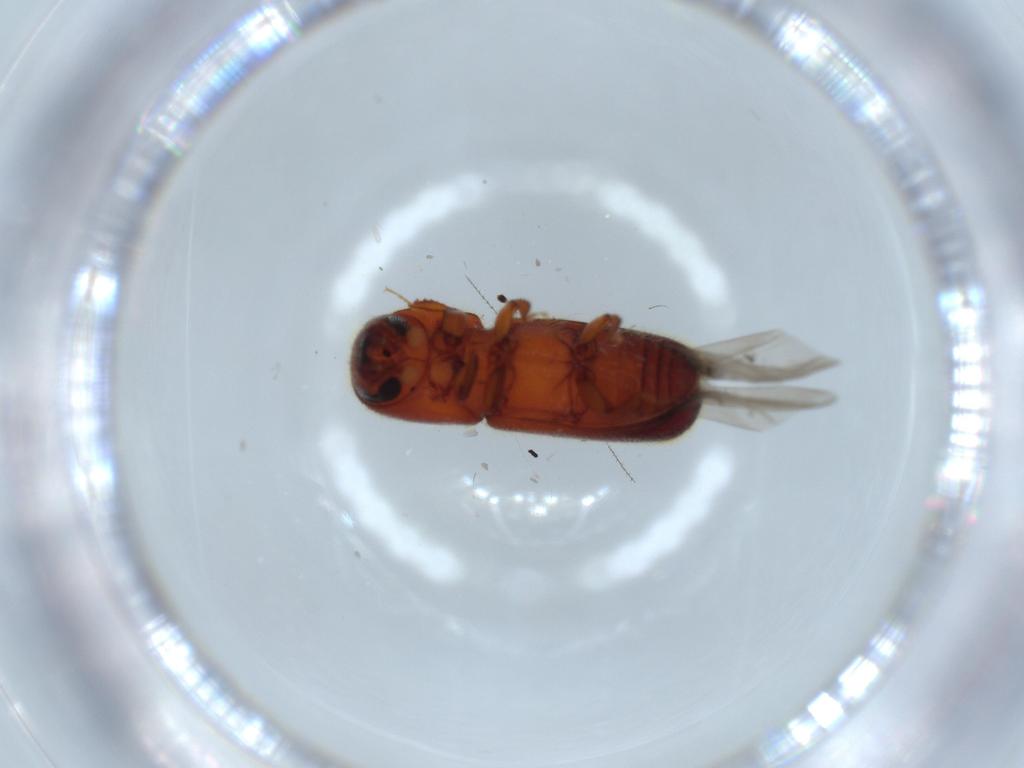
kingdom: Animalia
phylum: Arthropoda
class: Insecta
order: Coleoptera
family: Curculionidae
